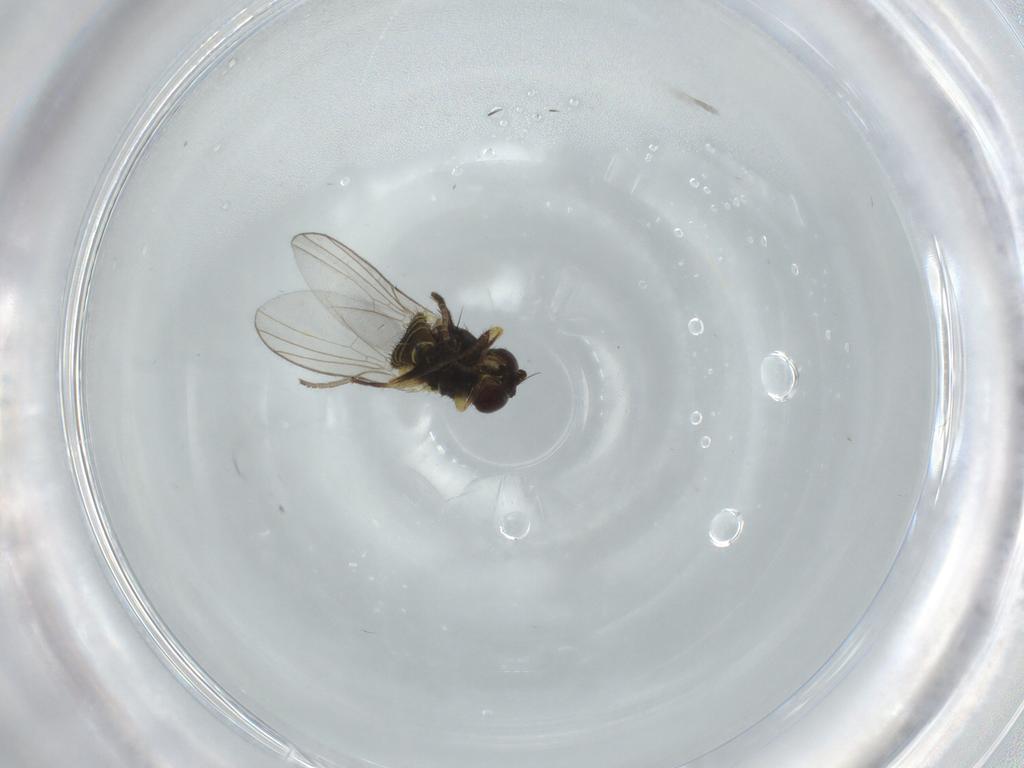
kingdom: Animalia
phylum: Arthropoda
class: Insecta
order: Diptera
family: Agromyzidae
